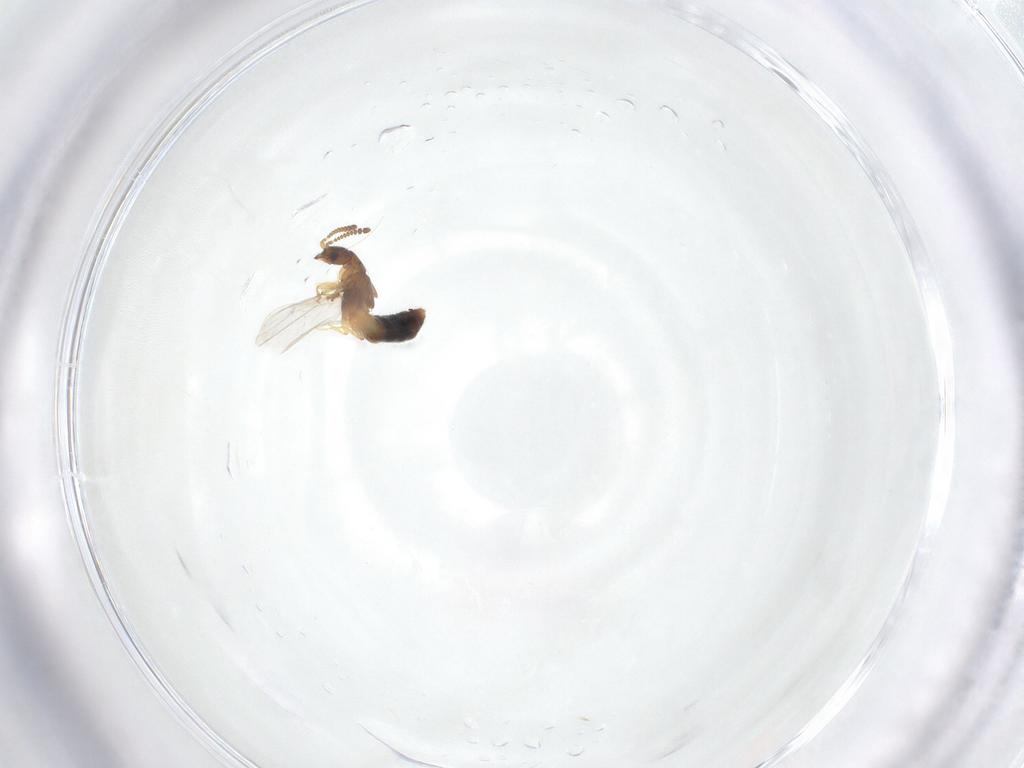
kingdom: Animalia
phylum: Arthropoda
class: Insecta
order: Coleoptera
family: Staphylinidae
